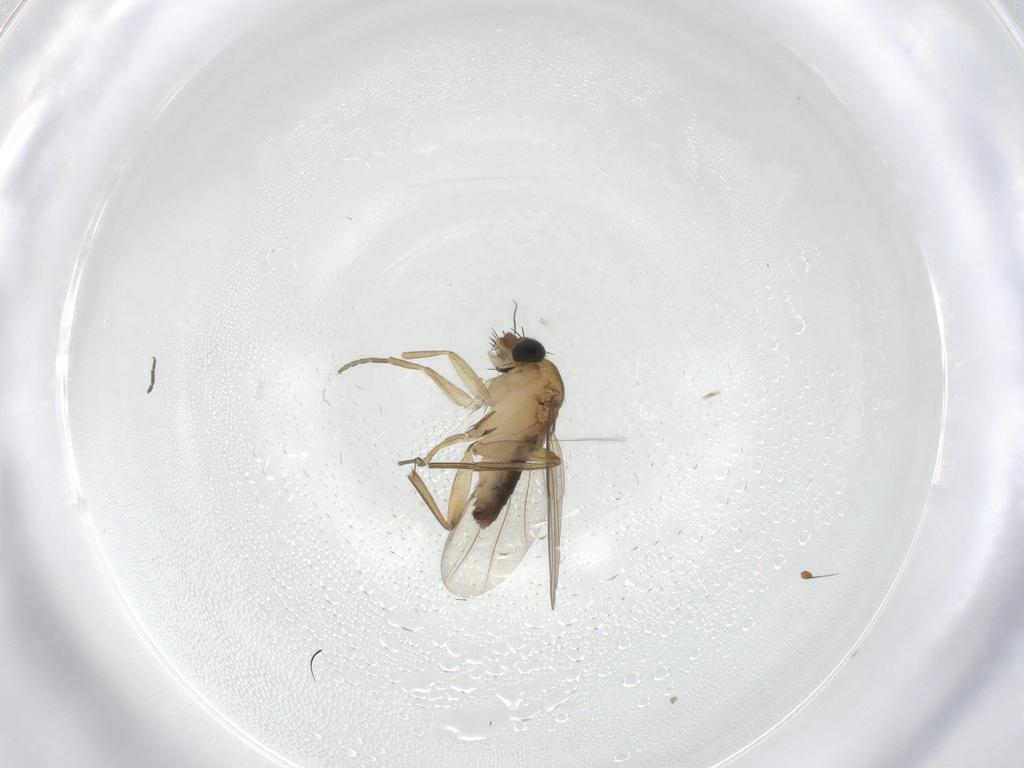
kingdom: Animalia
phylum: Arthropoda
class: Insecta
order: Diptera
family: Phoridae
